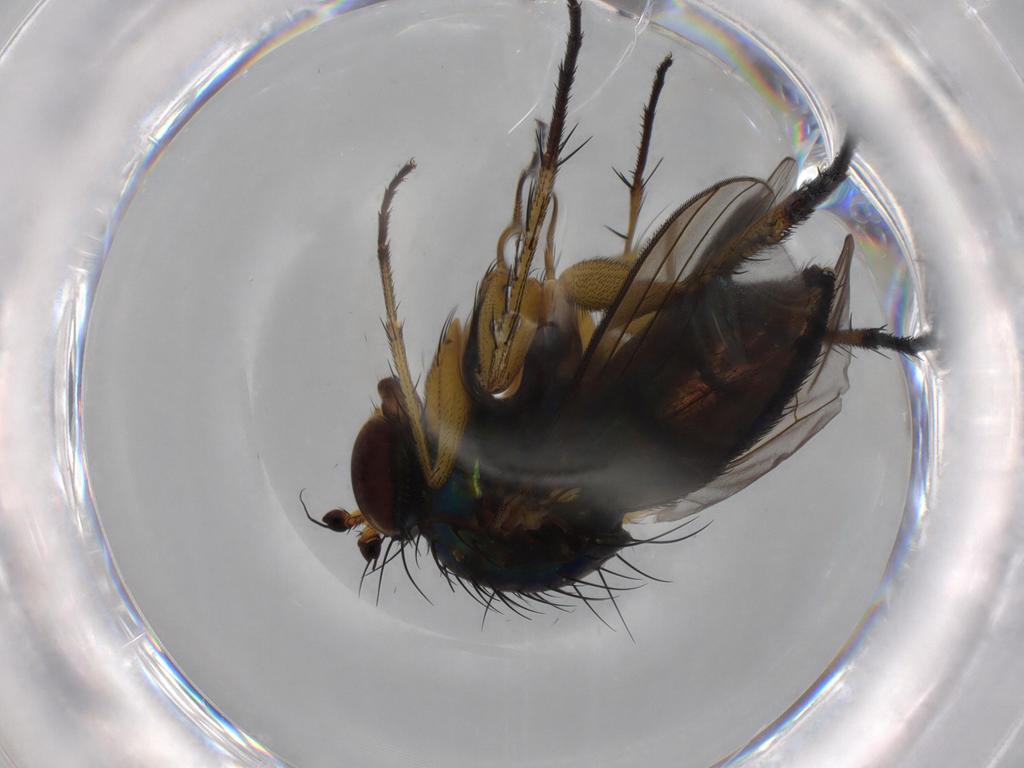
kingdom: Animalia
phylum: Arthropoda
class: Insecta
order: Diptera
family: Dolichopodidae
